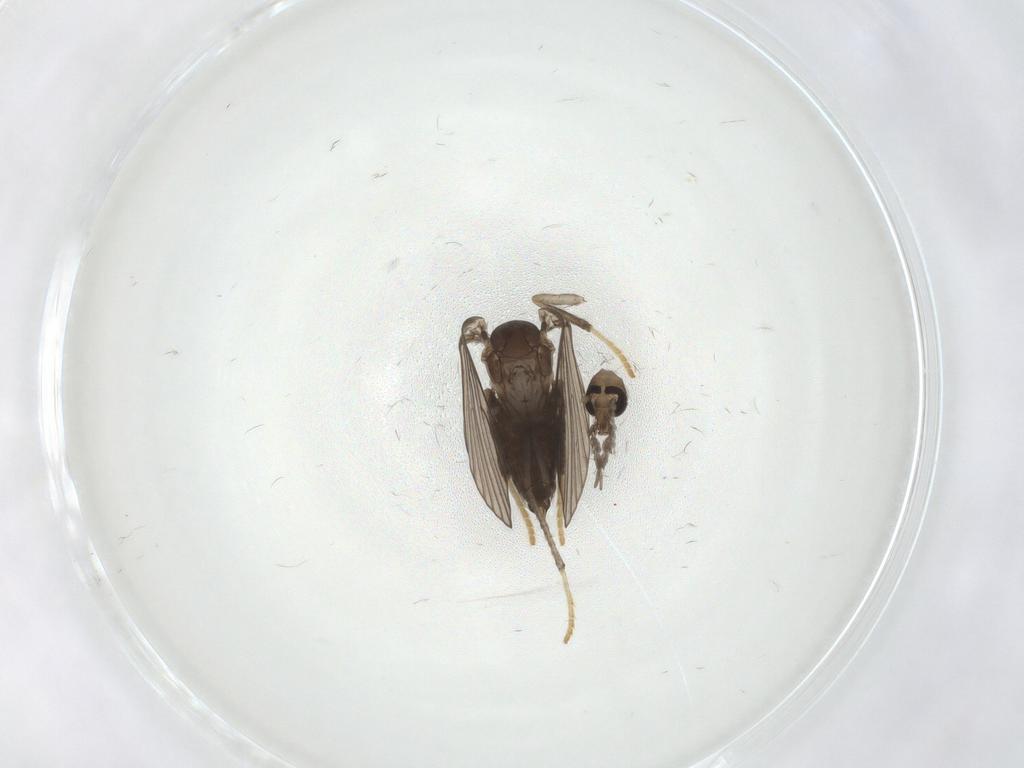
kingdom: Animalia
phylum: Arthropoda
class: Insecta
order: Diptera
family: Psychodidae
